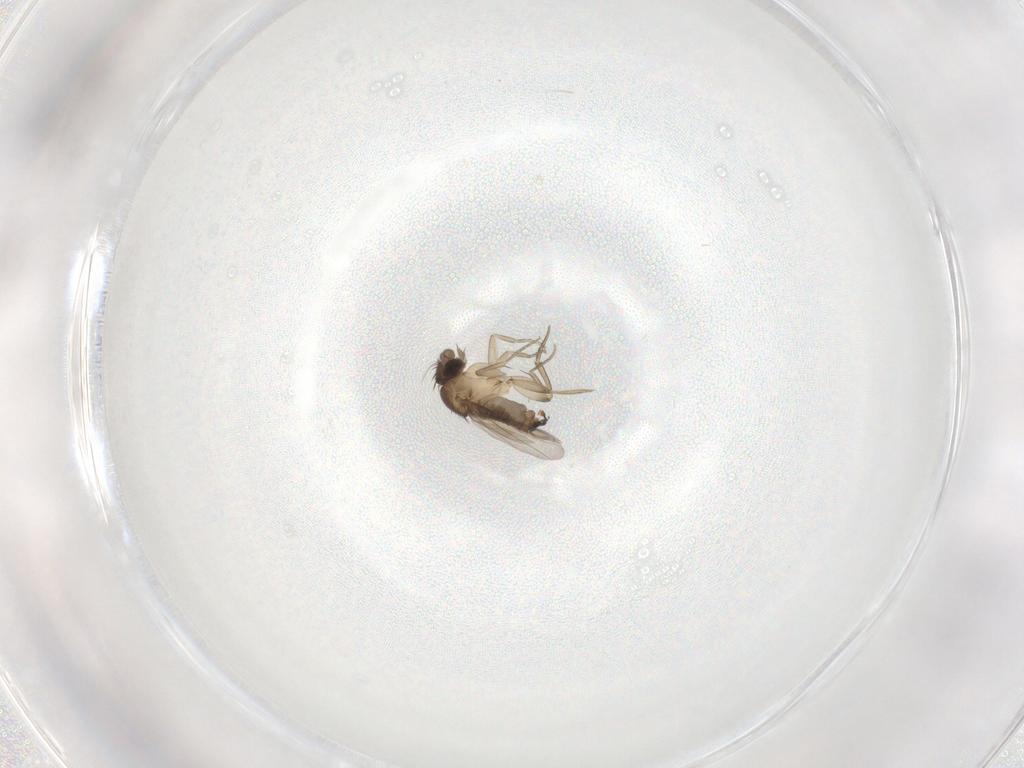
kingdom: Animalia
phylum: Arthropoda
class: Insecta
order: Diptera
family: Phoridae
